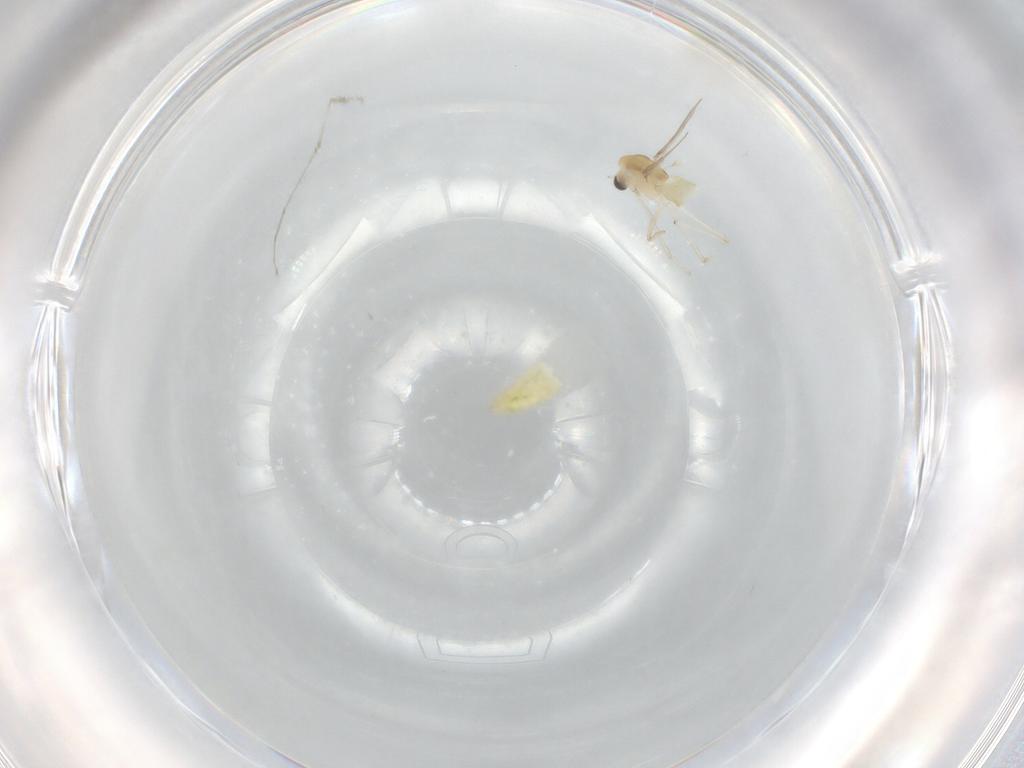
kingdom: Animalia
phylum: Arthropoda
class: Insecta
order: Diptera
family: Chironomidae
